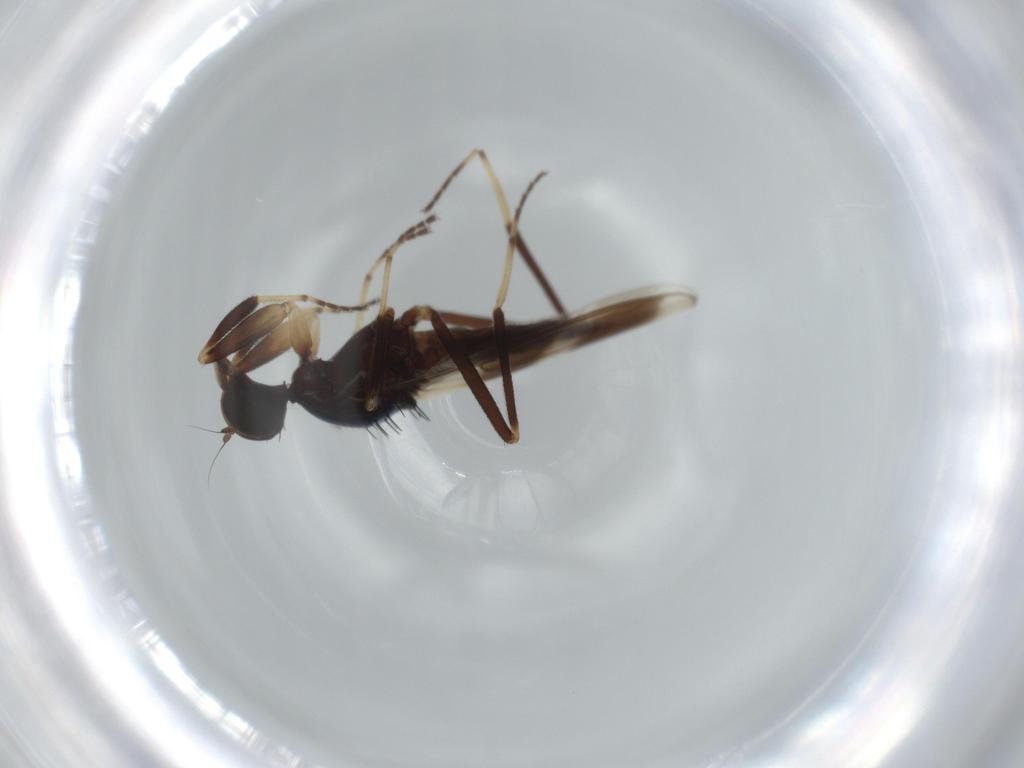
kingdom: Animalia
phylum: Arthropoda
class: Insecta
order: Diptera
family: Hybotidae
